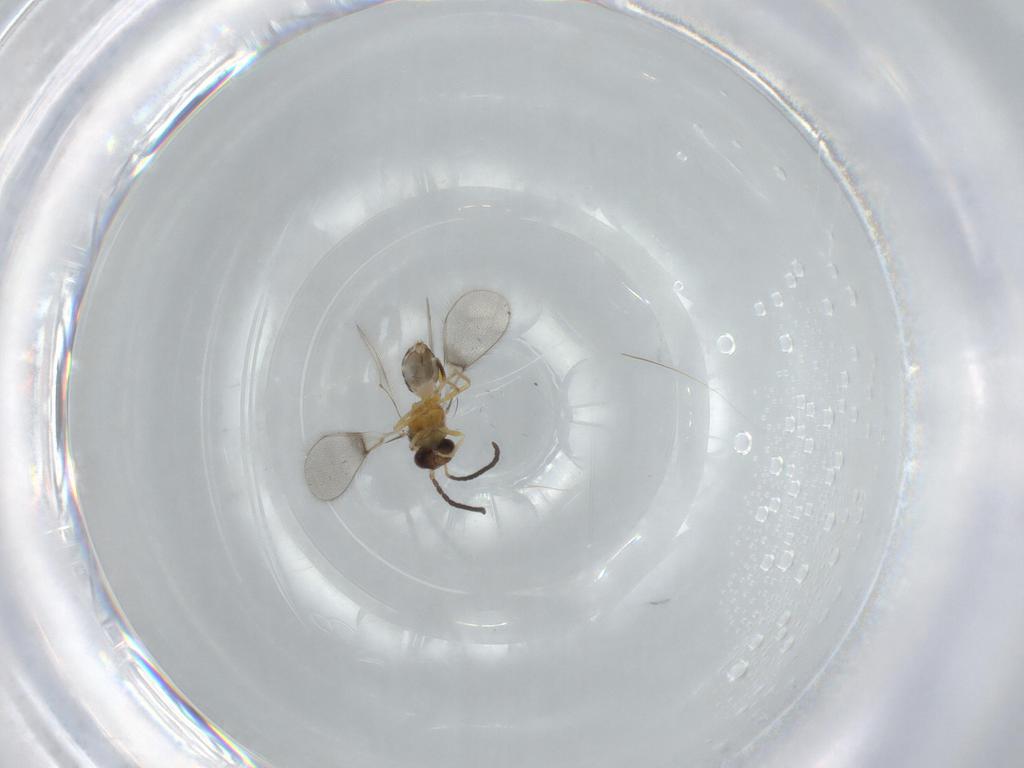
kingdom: Animalia
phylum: Arthropoda
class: Insecta
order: Hymenoptera
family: Mymaridae
